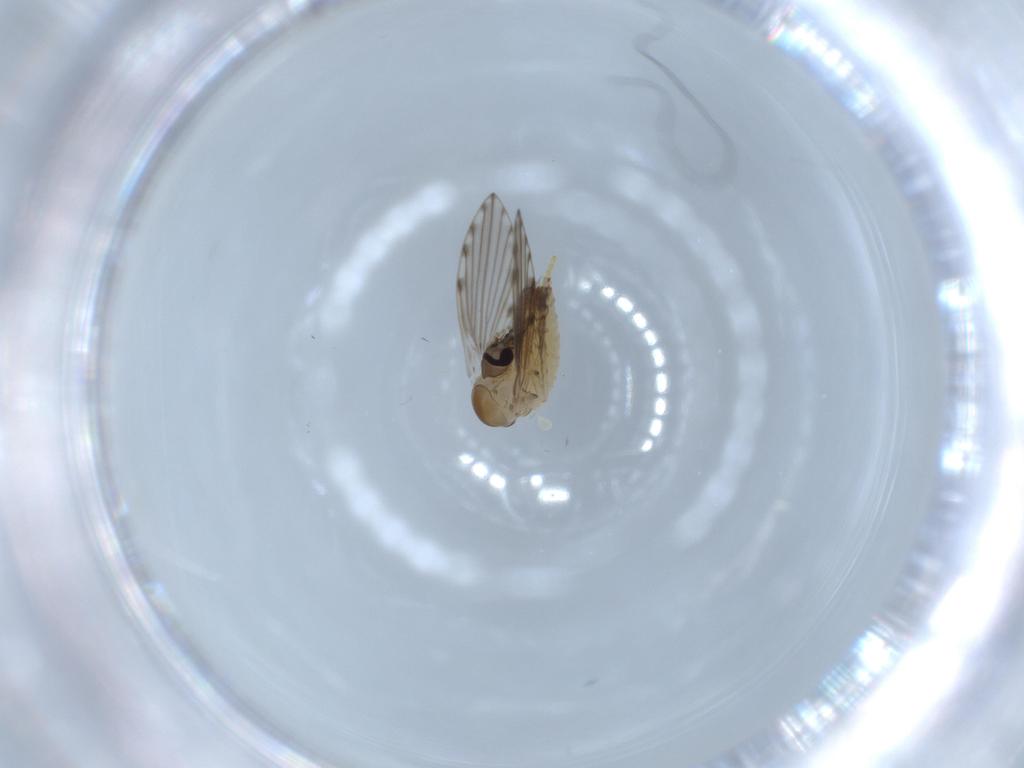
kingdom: Animalia
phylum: Arthropoda
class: Insecta
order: Diptera
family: Psychodidae
